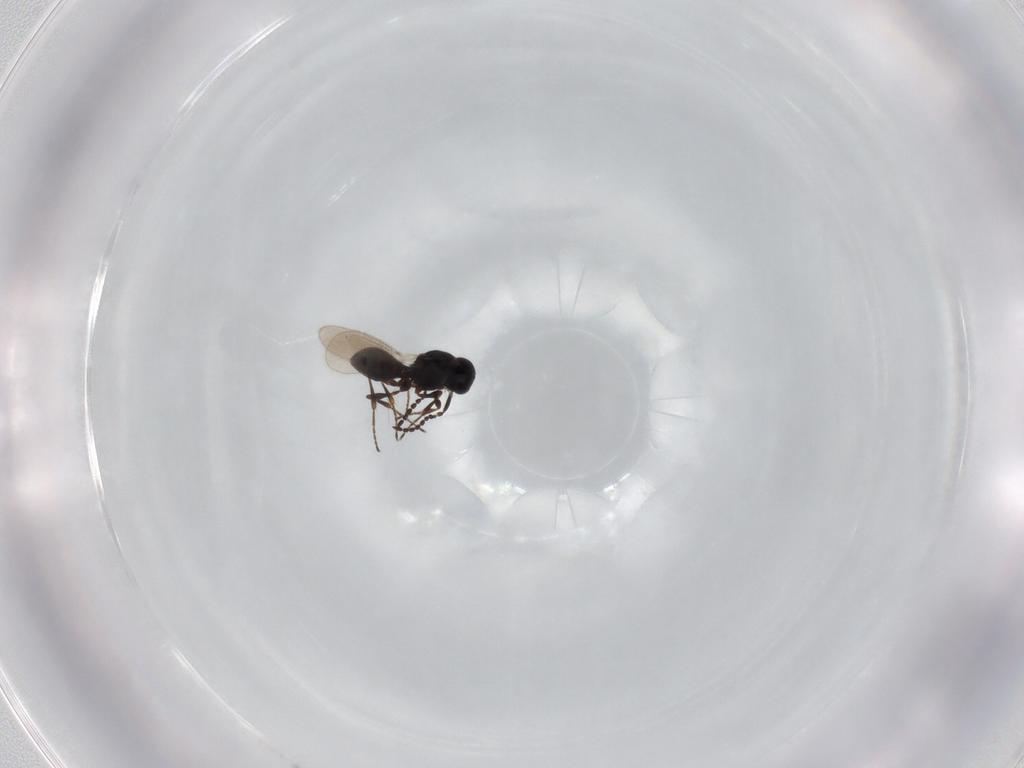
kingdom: Animalia
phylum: Arthropoda
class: Insecta
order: Hymenoptera
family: Platygastridae
